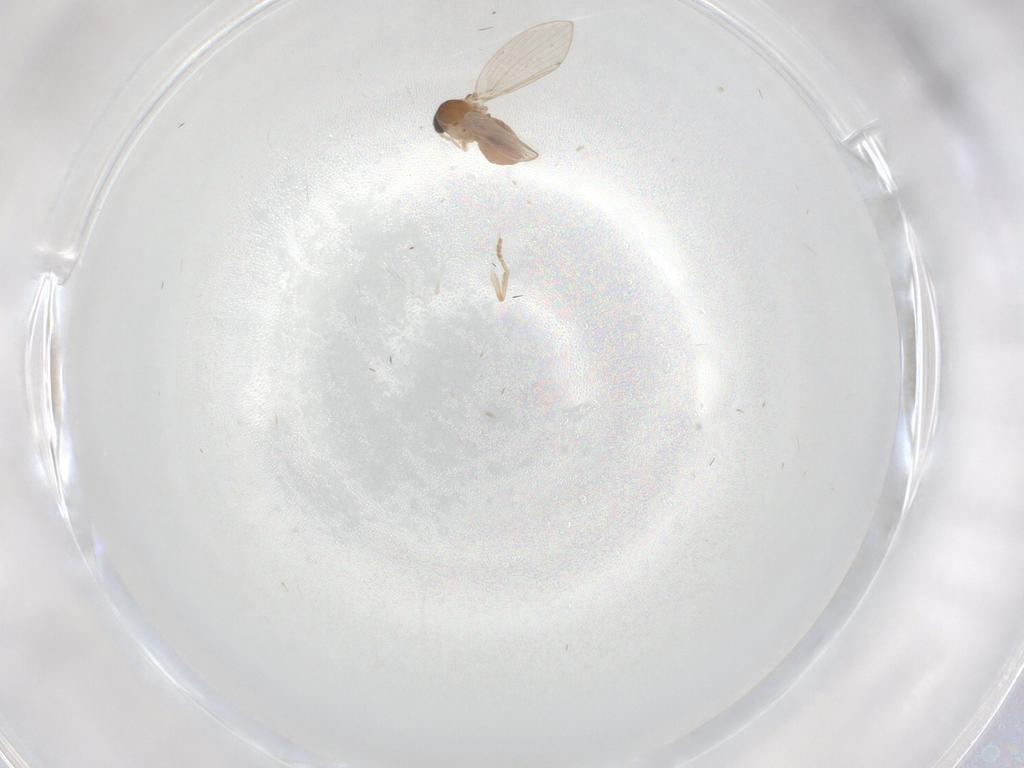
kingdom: Animalia
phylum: Arthropoda
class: Insecta
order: Diptera
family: Psychodidae
